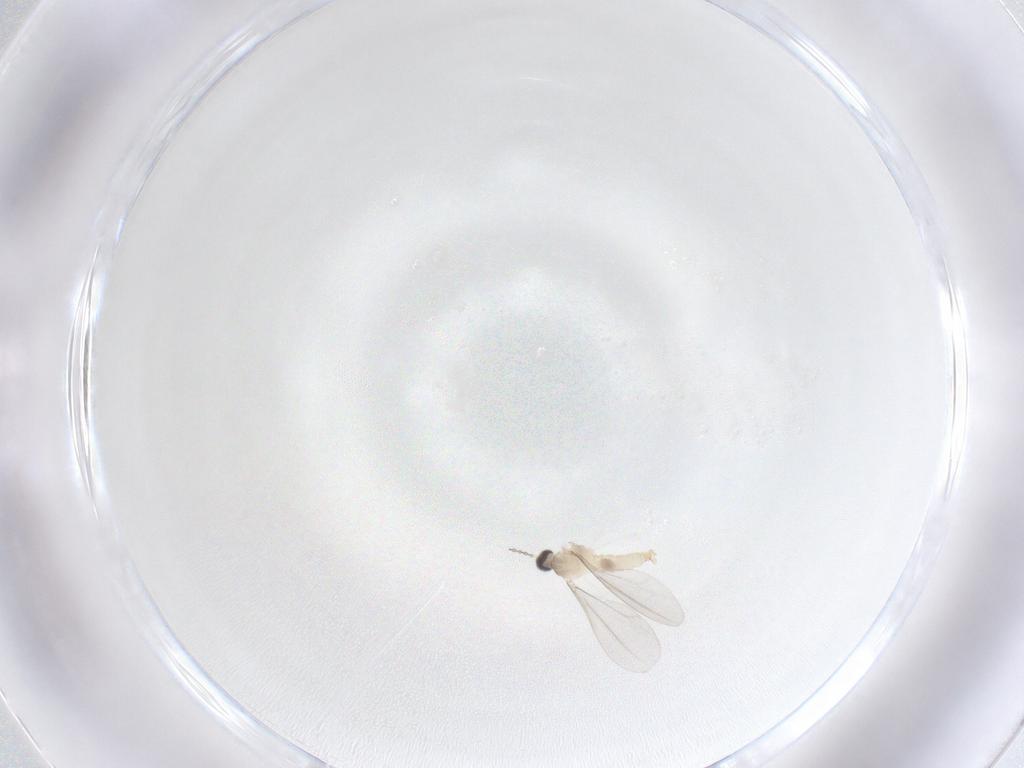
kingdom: Animalia
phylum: Arthropoda
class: Insecta
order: Diptera
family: Cecidomyiidae
